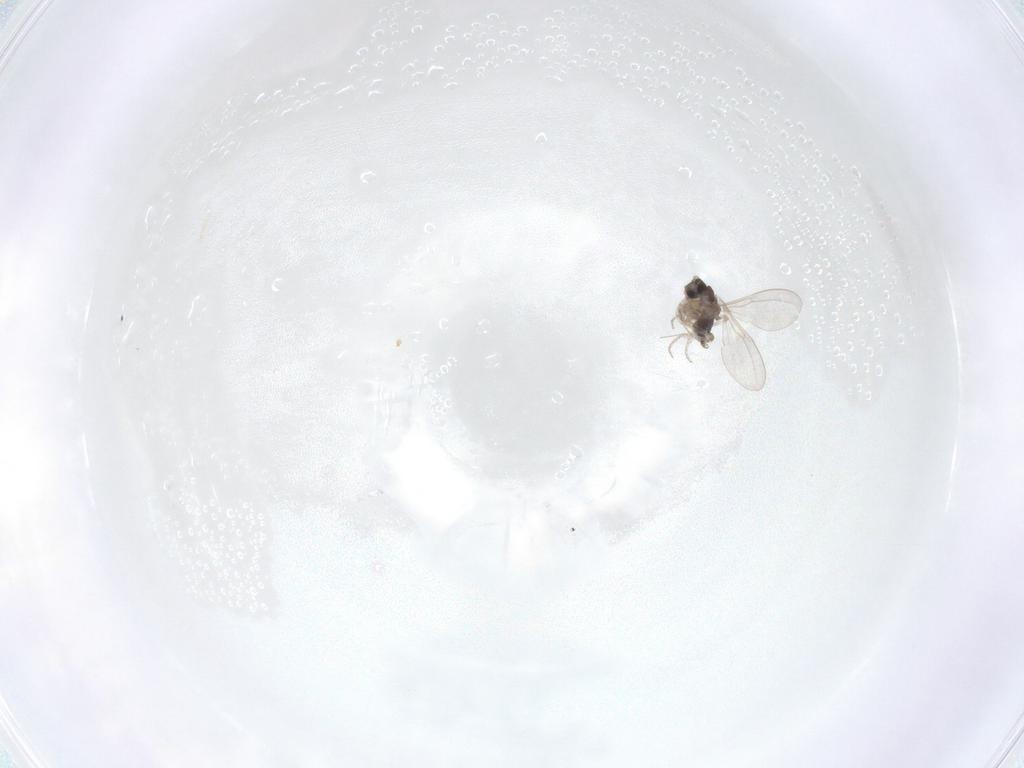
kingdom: Animalia
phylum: Arthropoda
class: Insecta
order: Diptera
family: Cecidomyiidae
